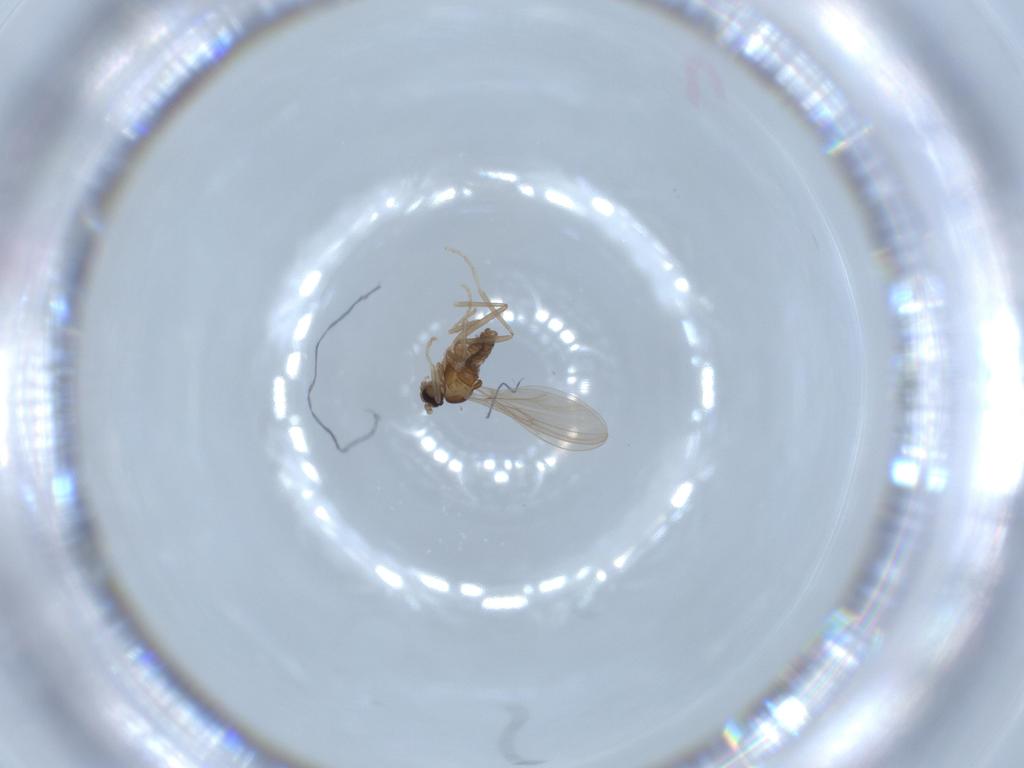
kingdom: Animalia
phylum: Arthropoda
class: Insecta
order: Diptera
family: Sciaridae
